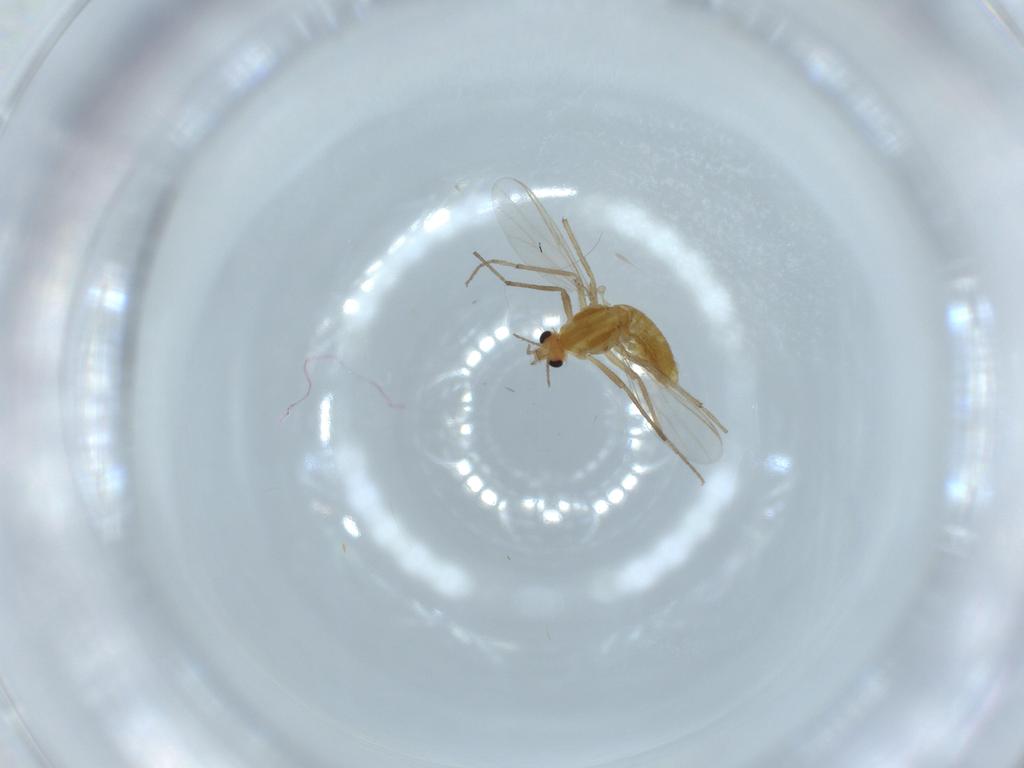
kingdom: Animalia
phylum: Arthropoda
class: Insecta
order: Diptera
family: Chironomidae
